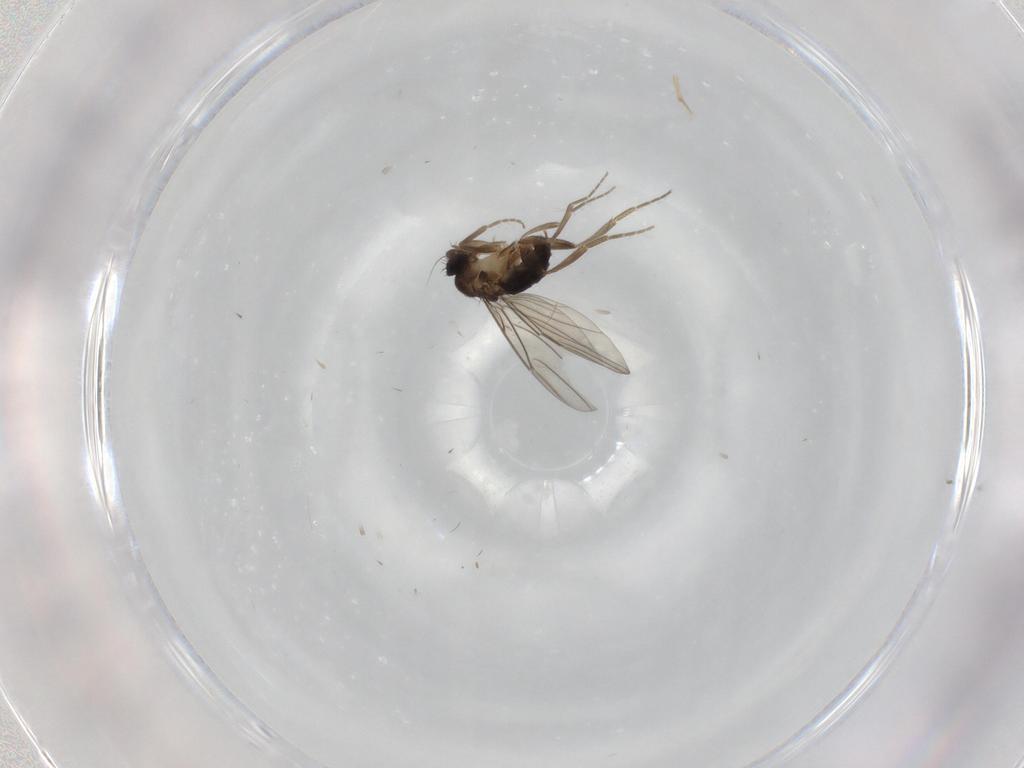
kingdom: Animalia
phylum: Arthropoda
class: Insecta
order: Diptera
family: Phoridae
